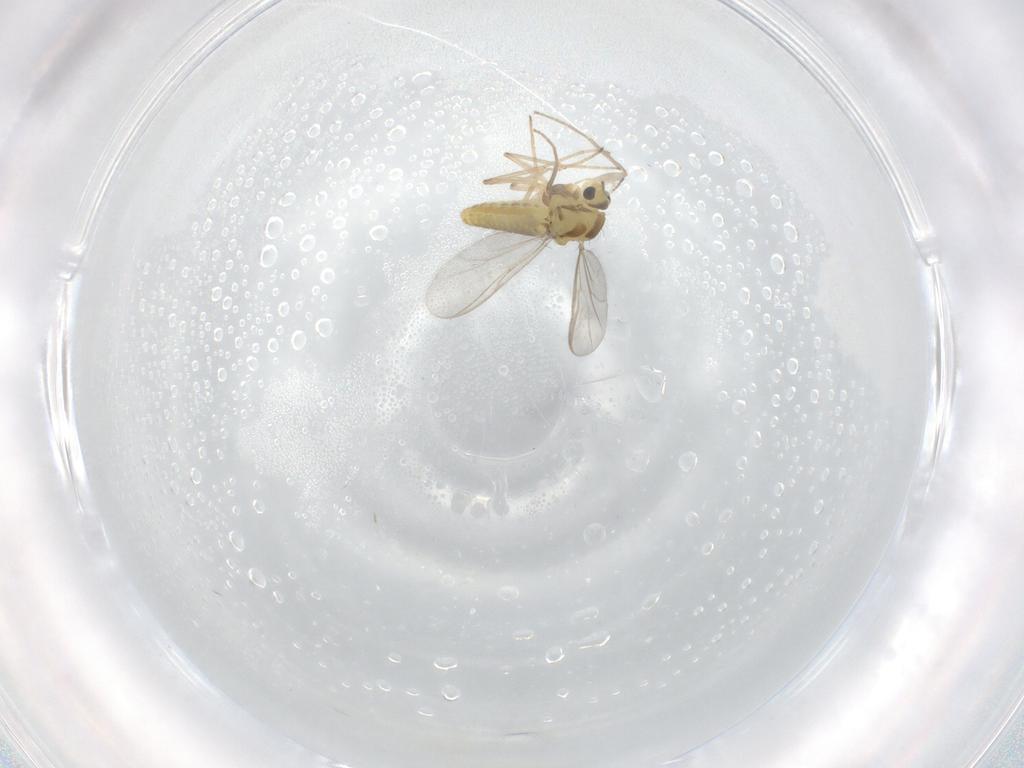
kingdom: Animalia
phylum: Arthropoda
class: Insecta
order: Diptera
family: Chironomidae
